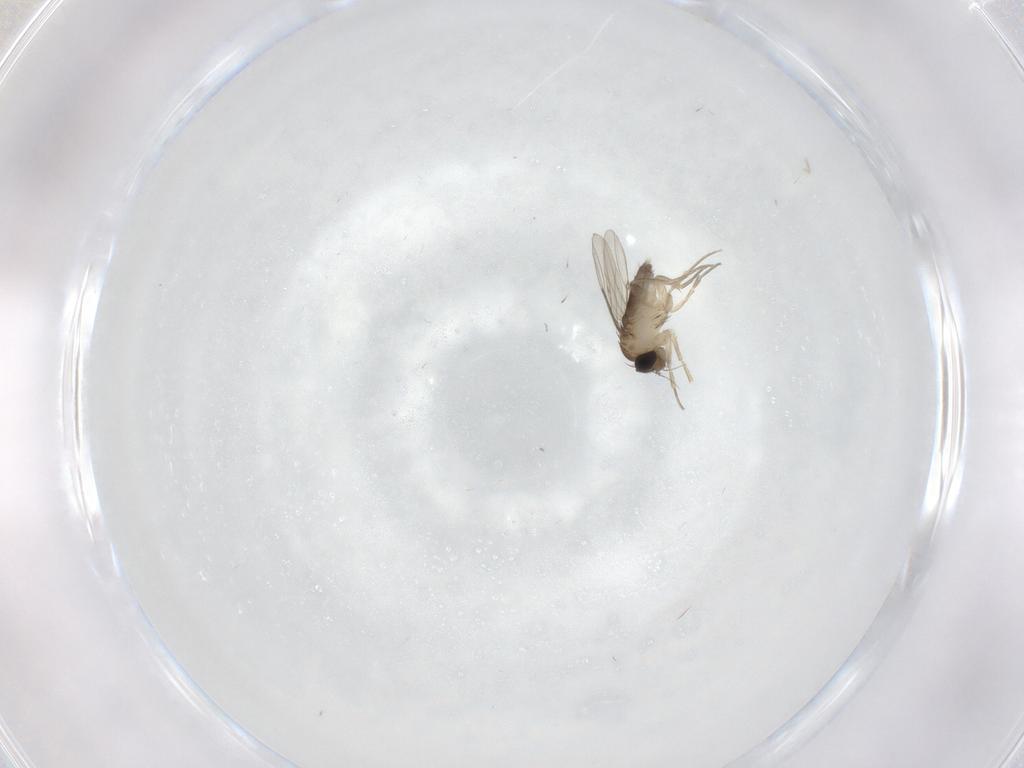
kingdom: Animalia
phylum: Arthropoda
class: Insecta
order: Diptera
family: Phoridae
